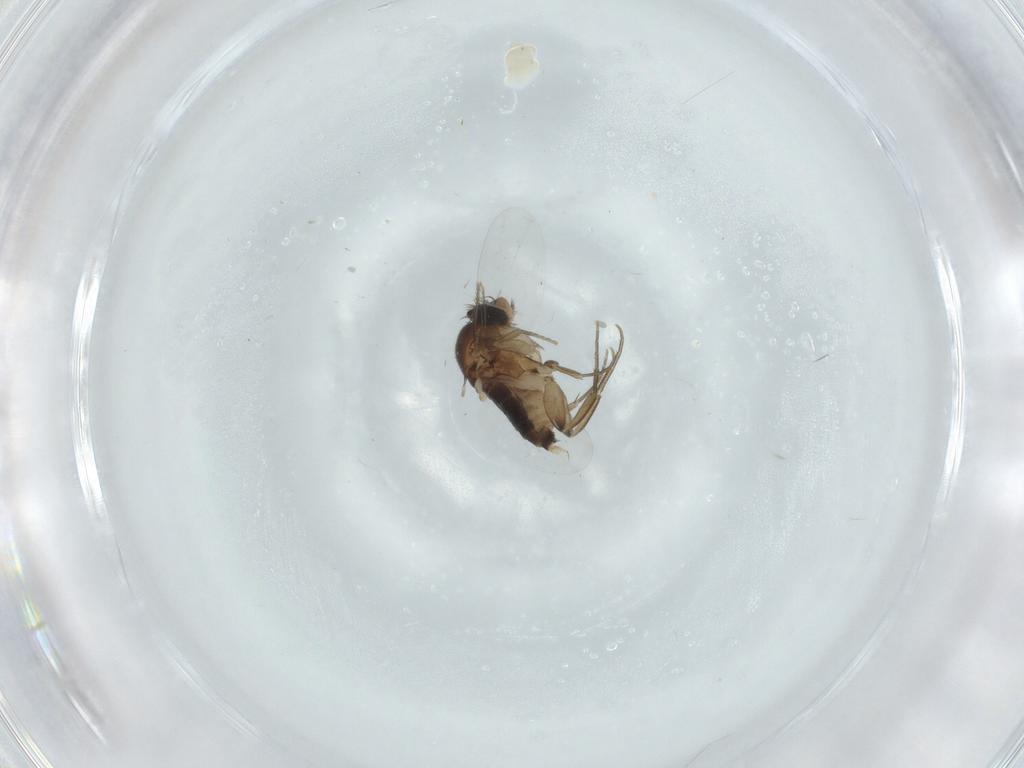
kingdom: Animalia
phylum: Arthropoda
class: Insecta
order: Diptera
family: Phoridae
